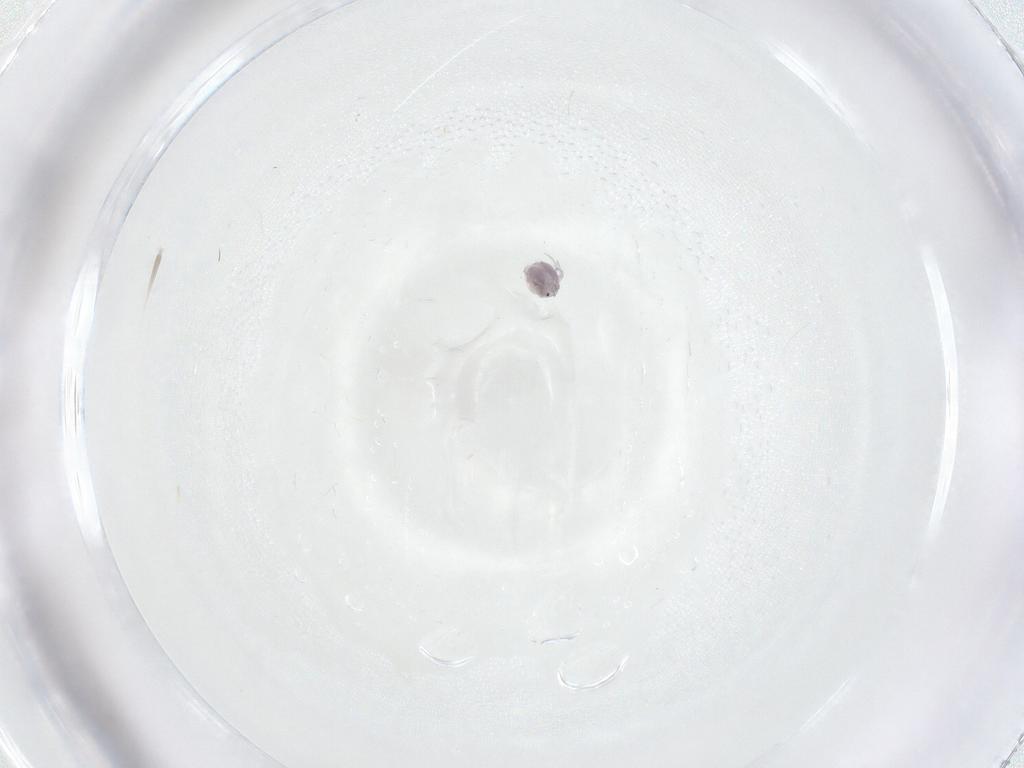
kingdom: Animalia
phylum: Arthropoda
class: Arachnida
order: Trombidiformes
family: Pionidae
